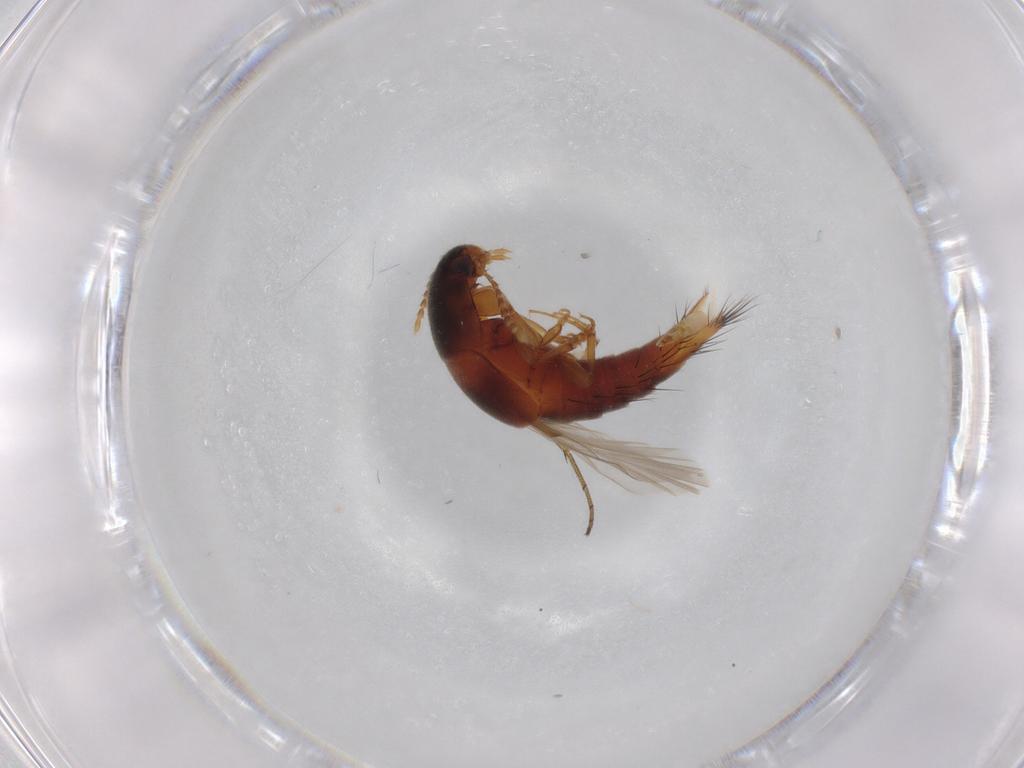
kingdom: Animalia
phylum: Arthropoda
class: Insecta
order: Coleoptera
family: Staphylinidae
